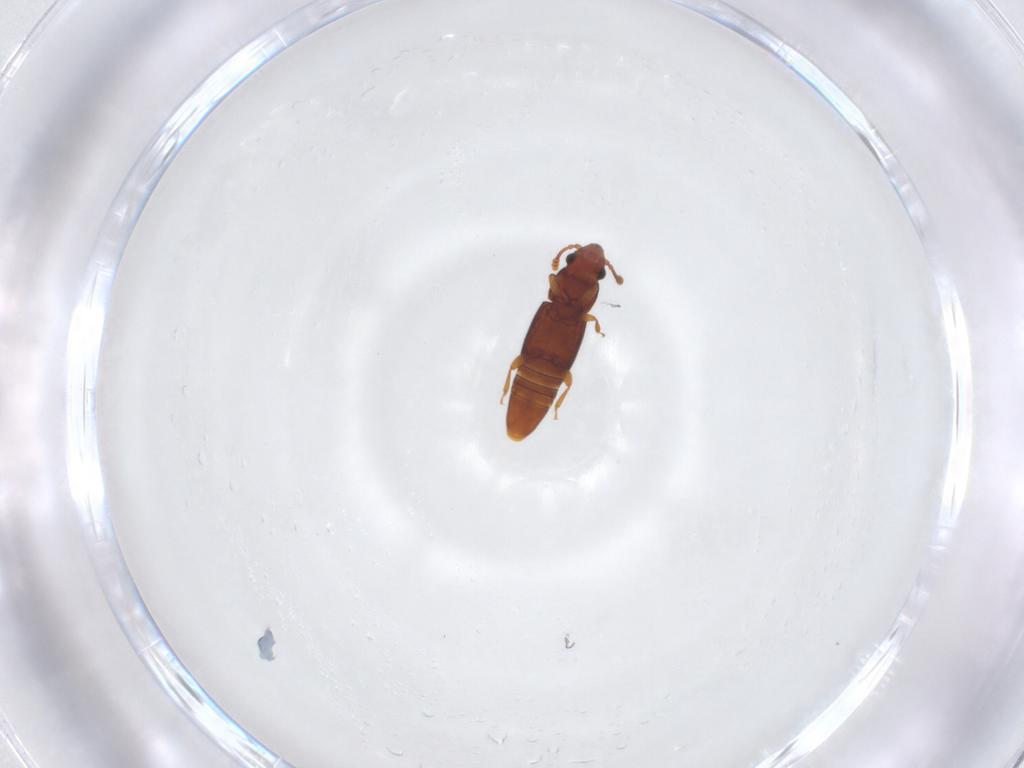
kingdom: Animalia
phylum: Arthropoda
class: Insecta
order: Coleoptera
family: Smicripidae
